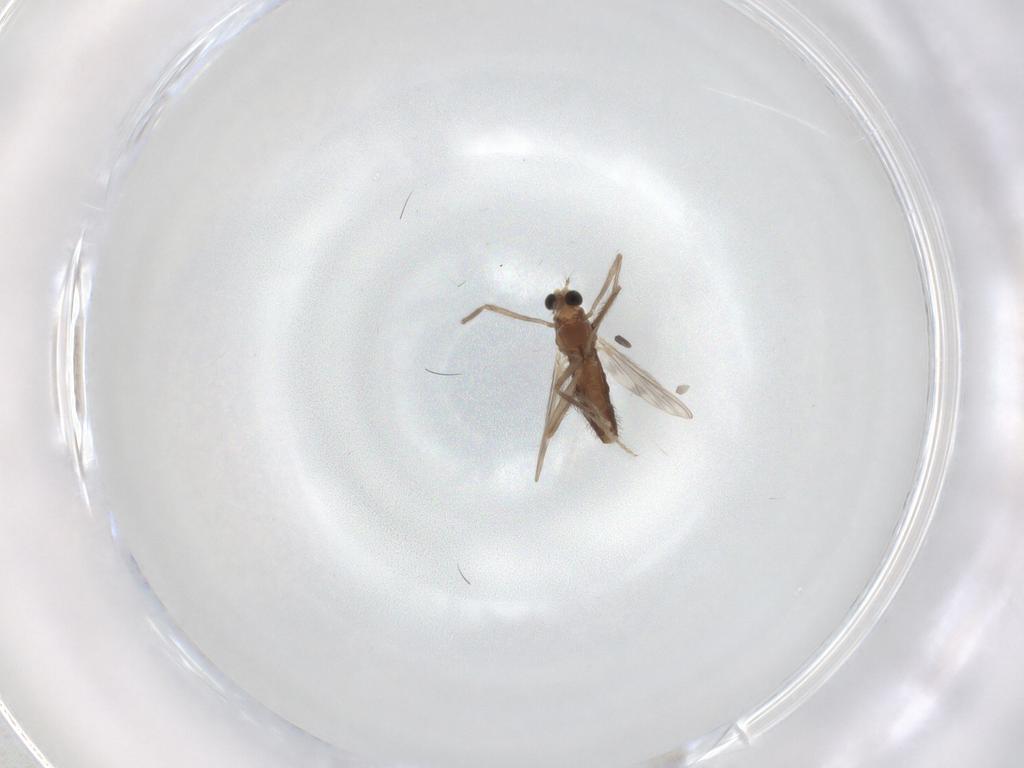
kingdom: Animalia
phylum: Arthropoda
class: Insecta
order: Diptera
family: Chironomidae
